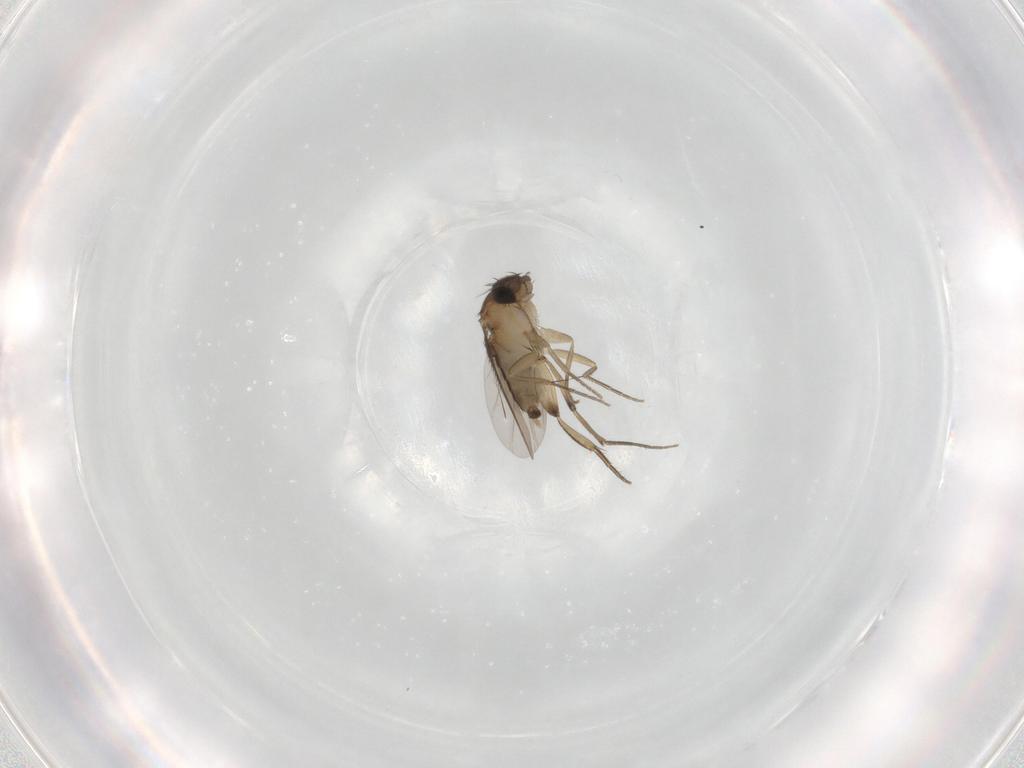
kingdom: Animalia
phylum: Arthropoda
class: Insecta
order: Diptera
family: Phoridae
